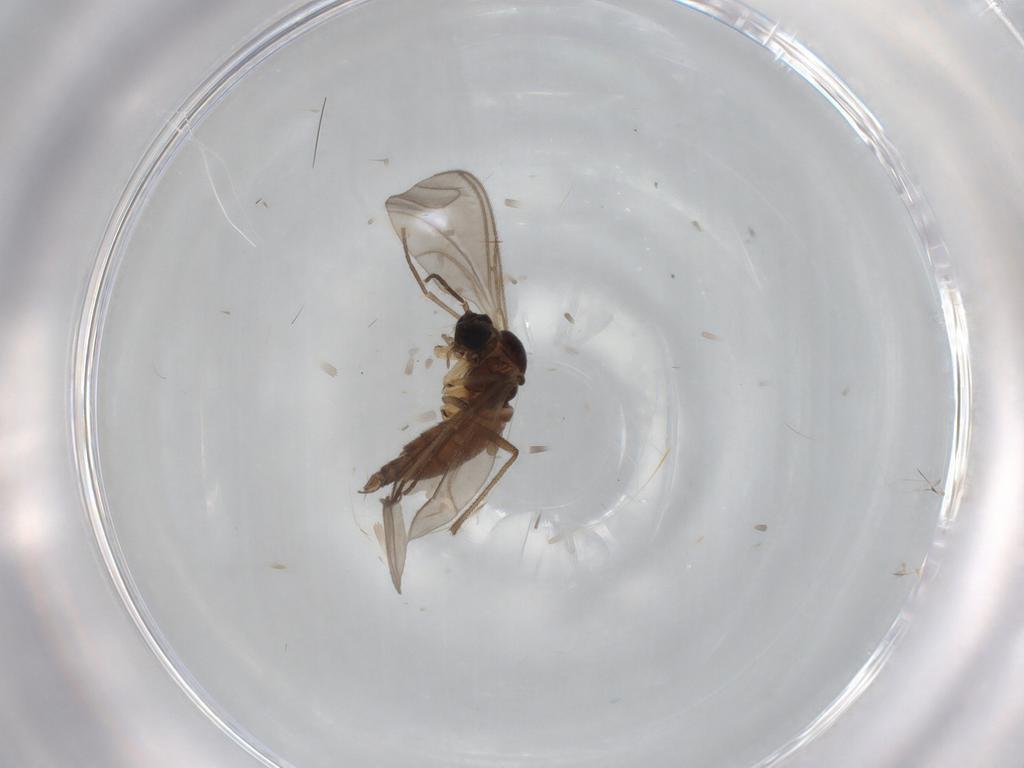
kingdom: Animalia
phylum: Arthropoda
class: Insecta
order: Diptera
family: Sciaridae
